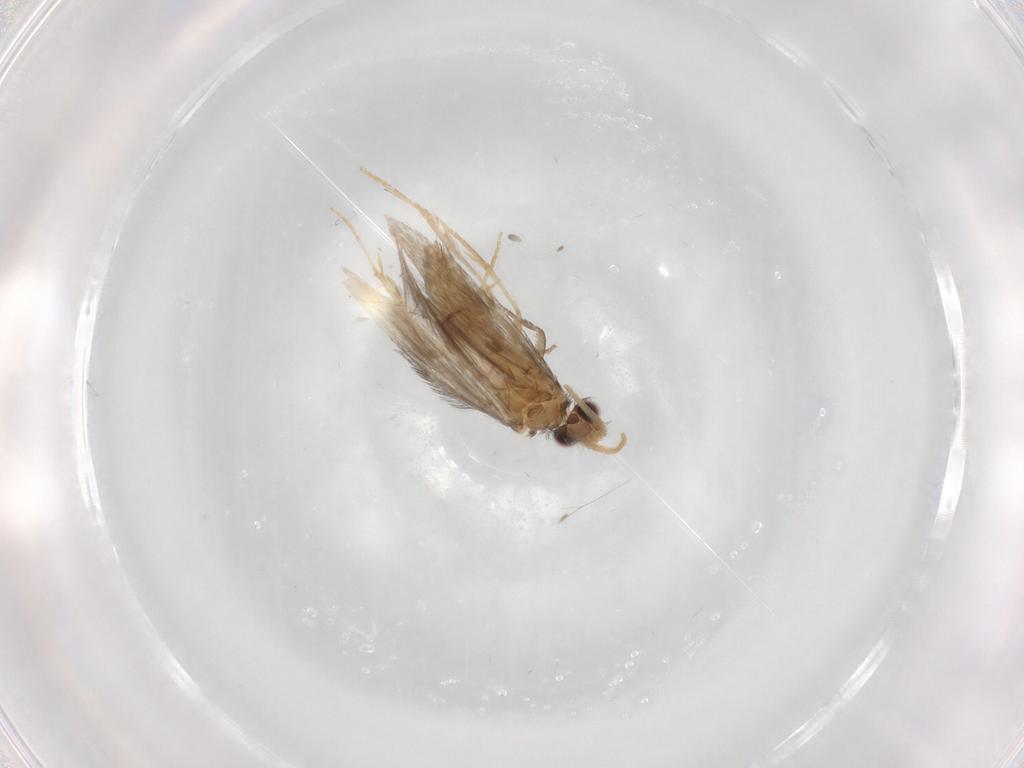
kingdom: Animalia
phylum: Arthropoda
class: Insecta
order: Trichoptera
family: Hydroptilidae
